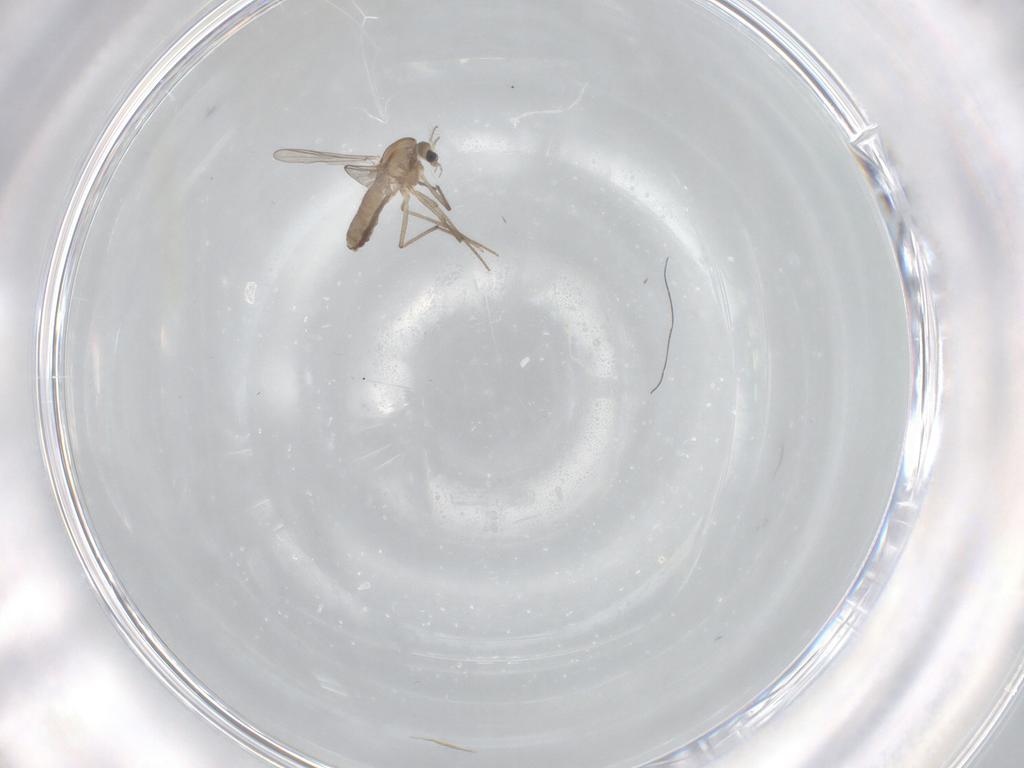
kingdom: Animalia
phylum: Arthropoda
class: Insecta
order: Diptera
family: Chironomidae
